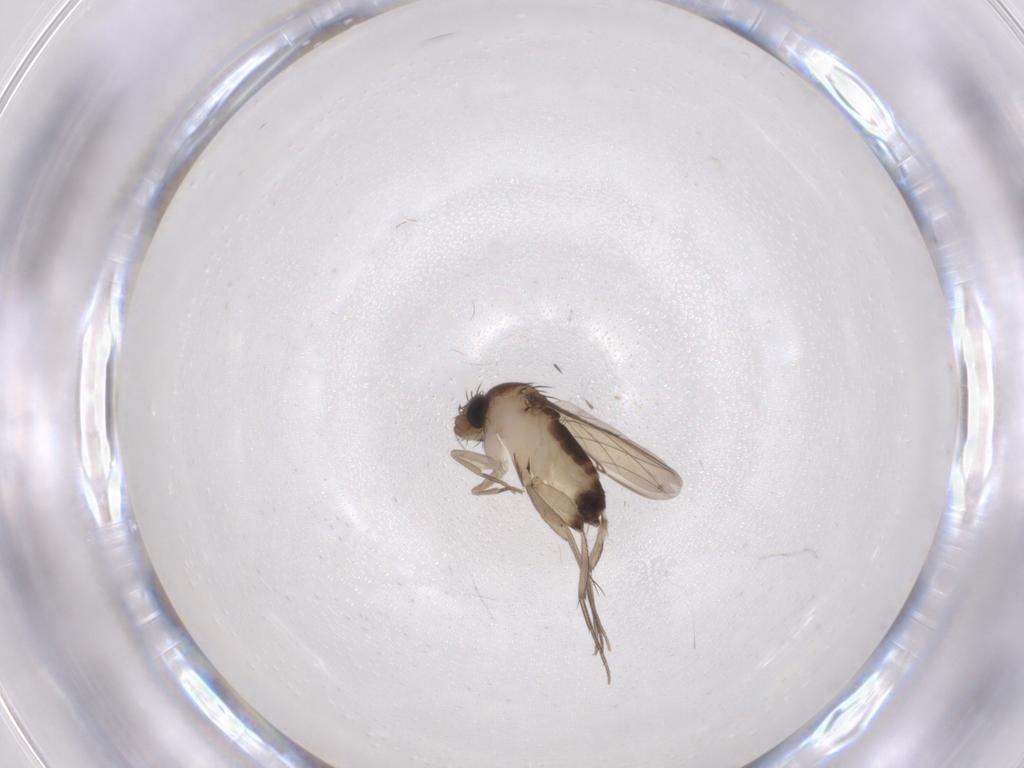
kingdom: Animalia
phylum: Arthropoda
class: Insecta
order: Diptera
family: Phoridae
